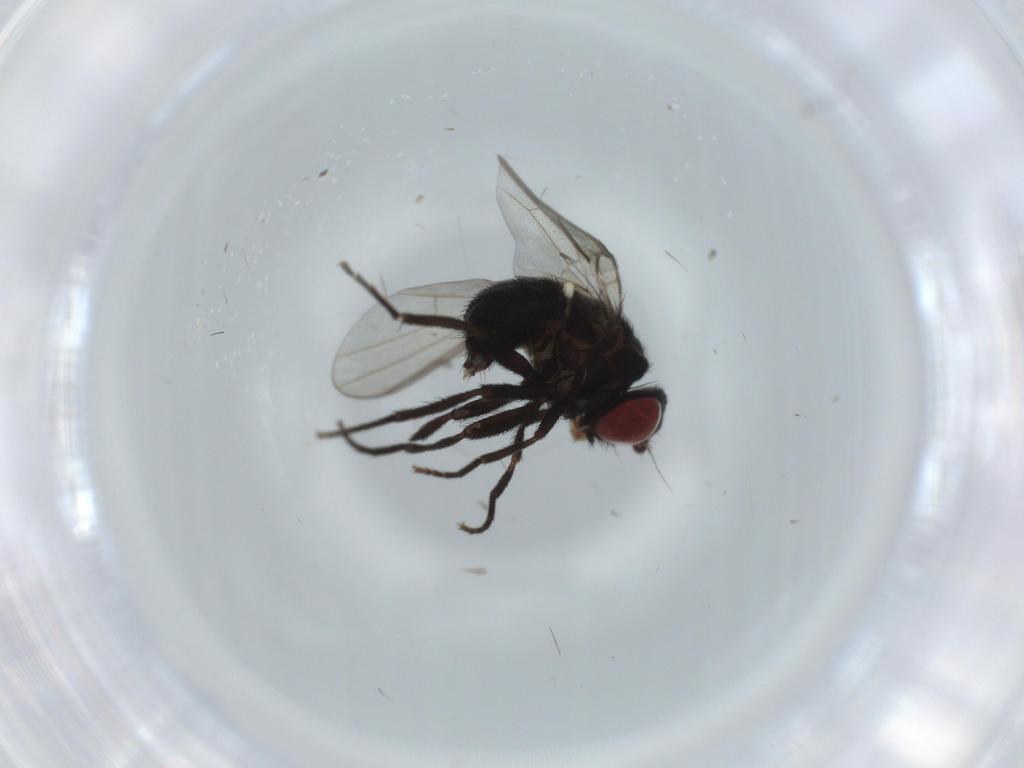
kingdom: Animalia
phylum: Arthropoda
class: Insecta
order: Diptera
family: Agromyzidae
